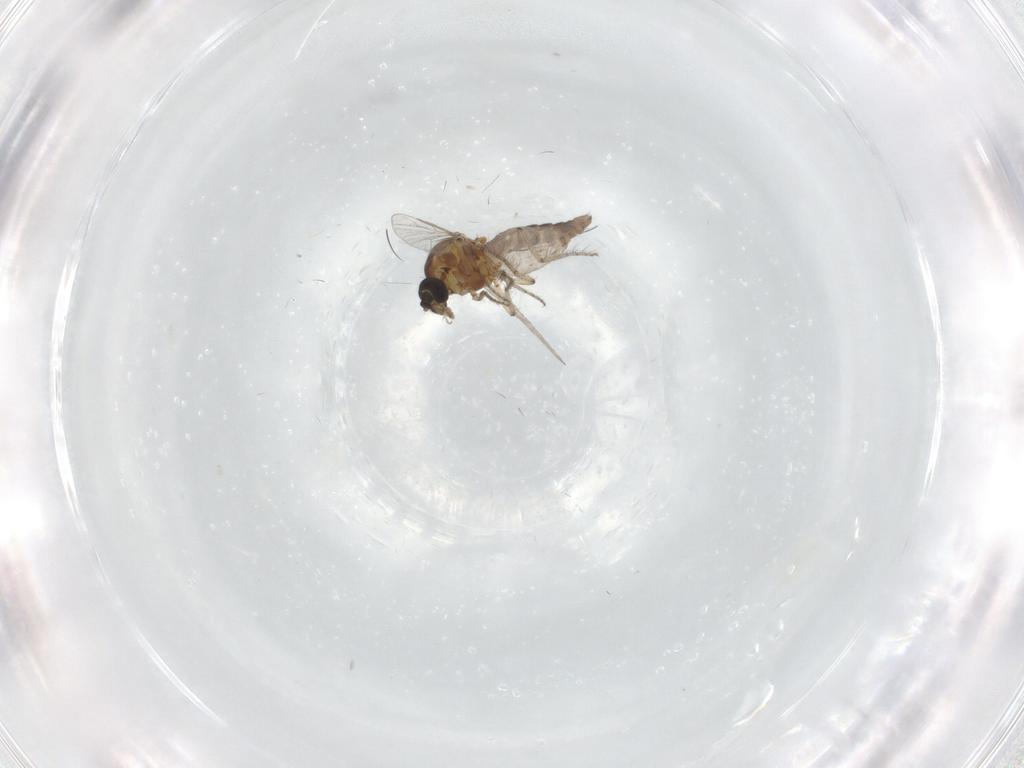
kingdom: Animalia
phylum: Arthropoda
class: Insecta
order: Diptera
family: Ceratopogonidae
